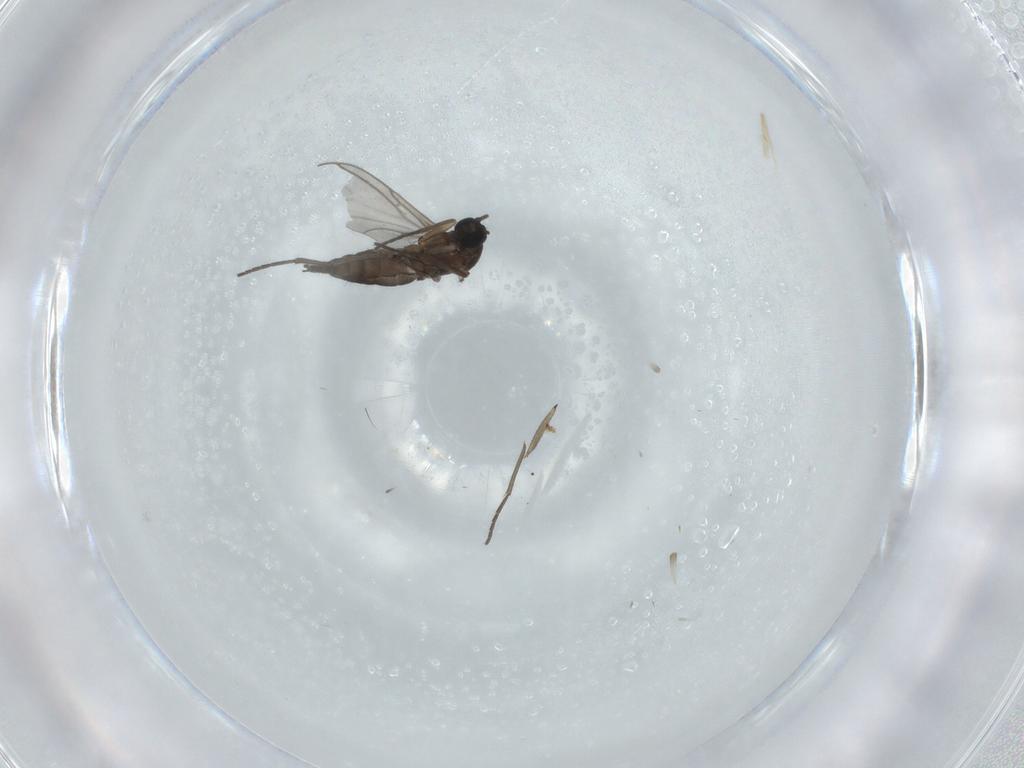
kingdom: Animalia
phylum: Arthropoda
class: Insecta
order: Diptera
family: Sciaridae
